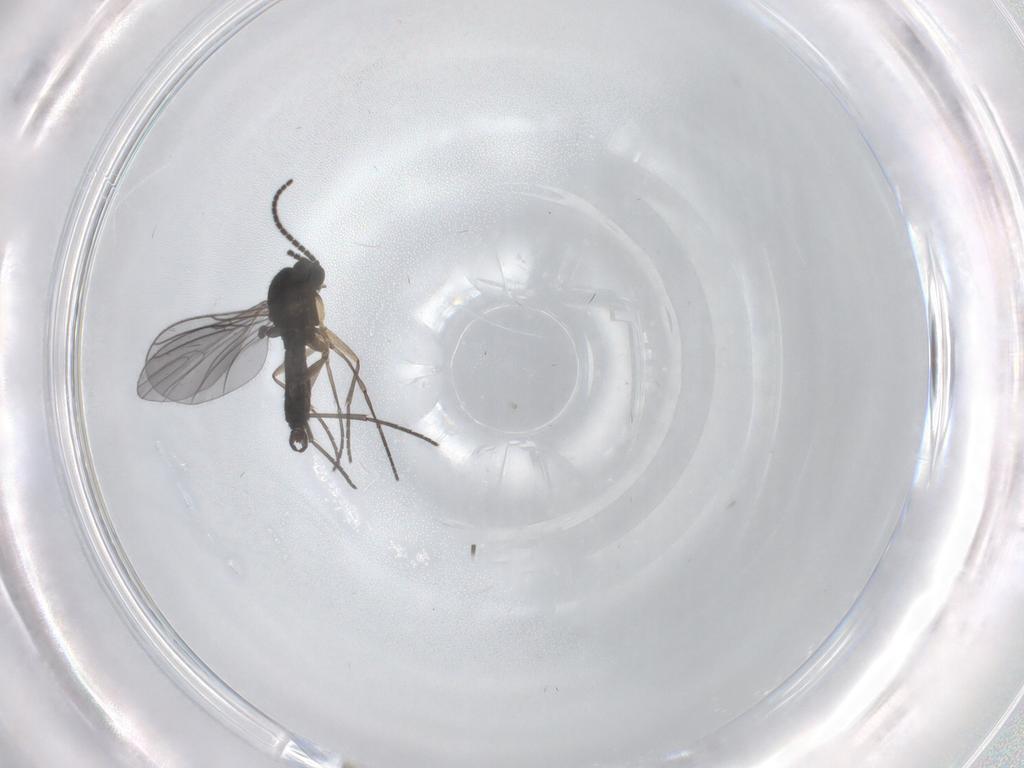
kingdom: Animalia
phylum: Arthropoda
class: Insecta
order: Diptera
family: Sciaridae
